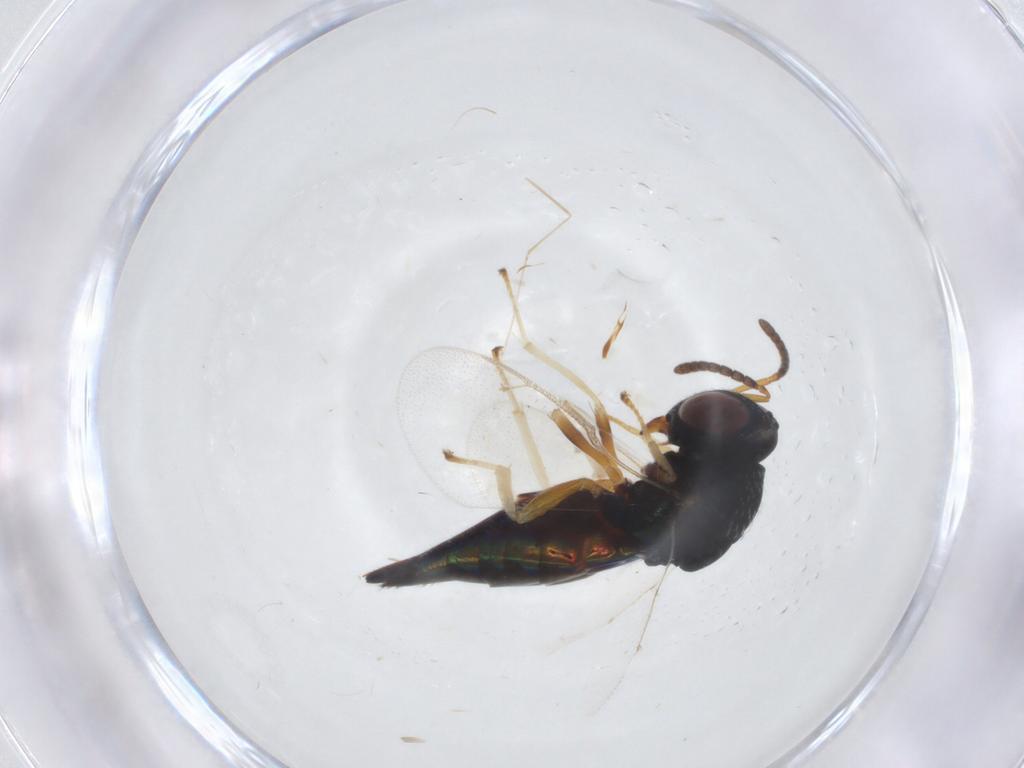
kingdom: Animalia
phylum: Arthropoda
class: Insecta
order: Hymenoptera
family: Pteromalidae
